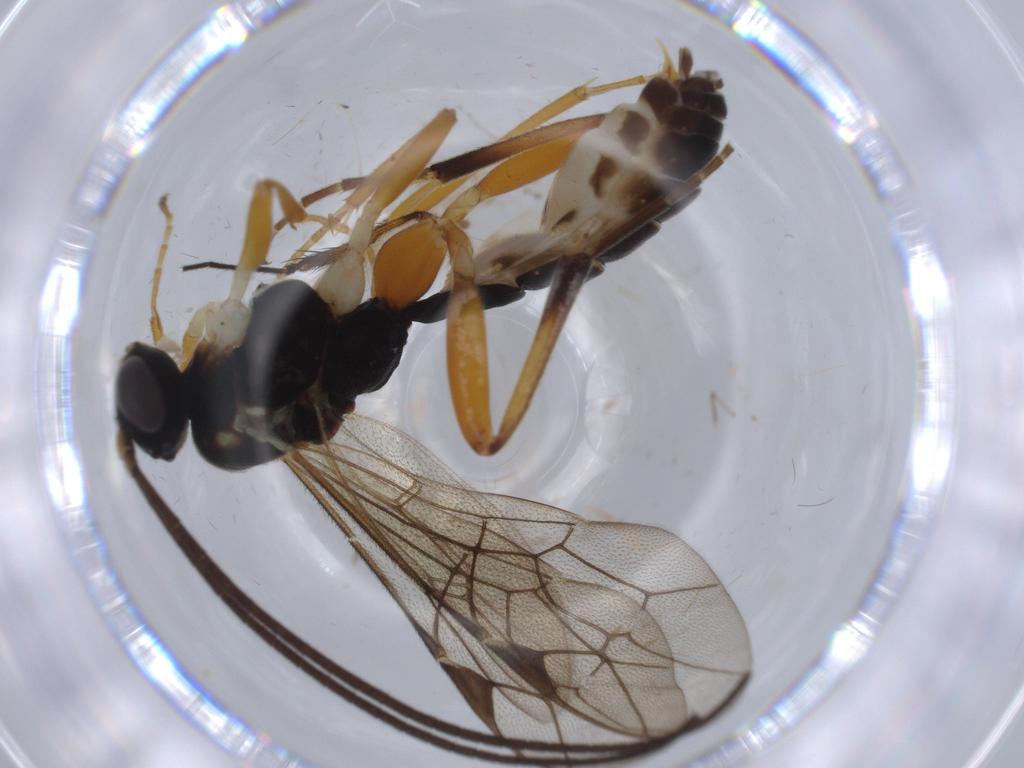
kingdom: Animalia
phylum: Arthropoda
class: Insecta
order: Hymenoptera
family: Ichneumonidae
